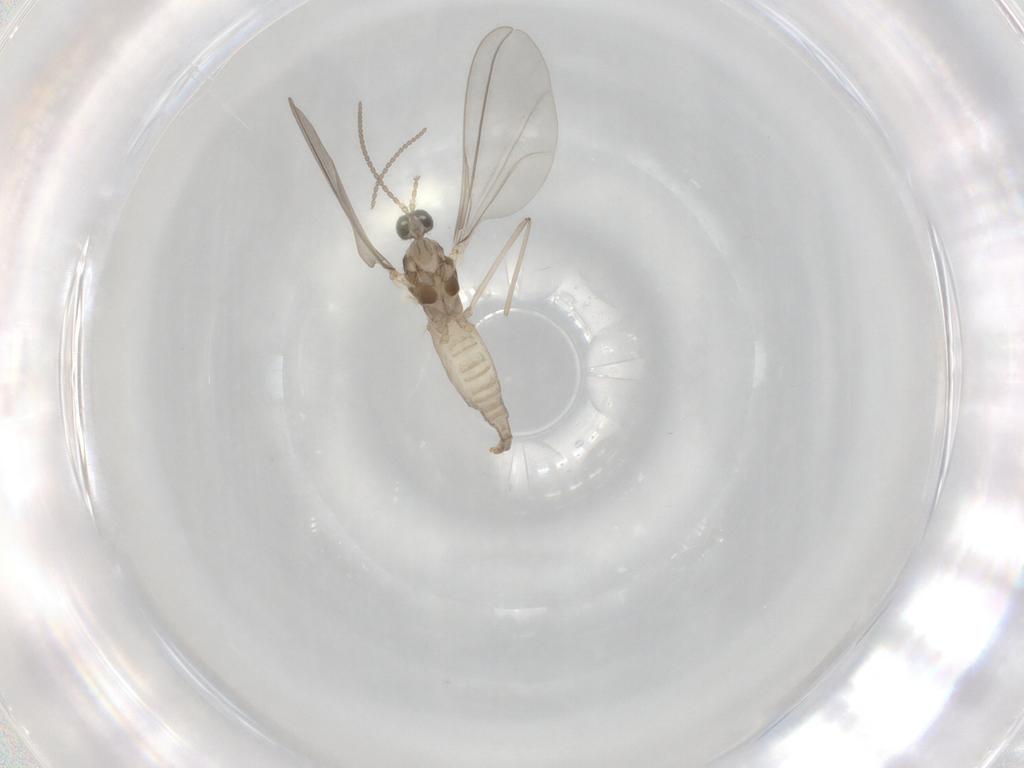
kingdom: Animalia
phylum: Arthropoda
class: Insecta
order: Diptera
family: Cecidomyiidae
